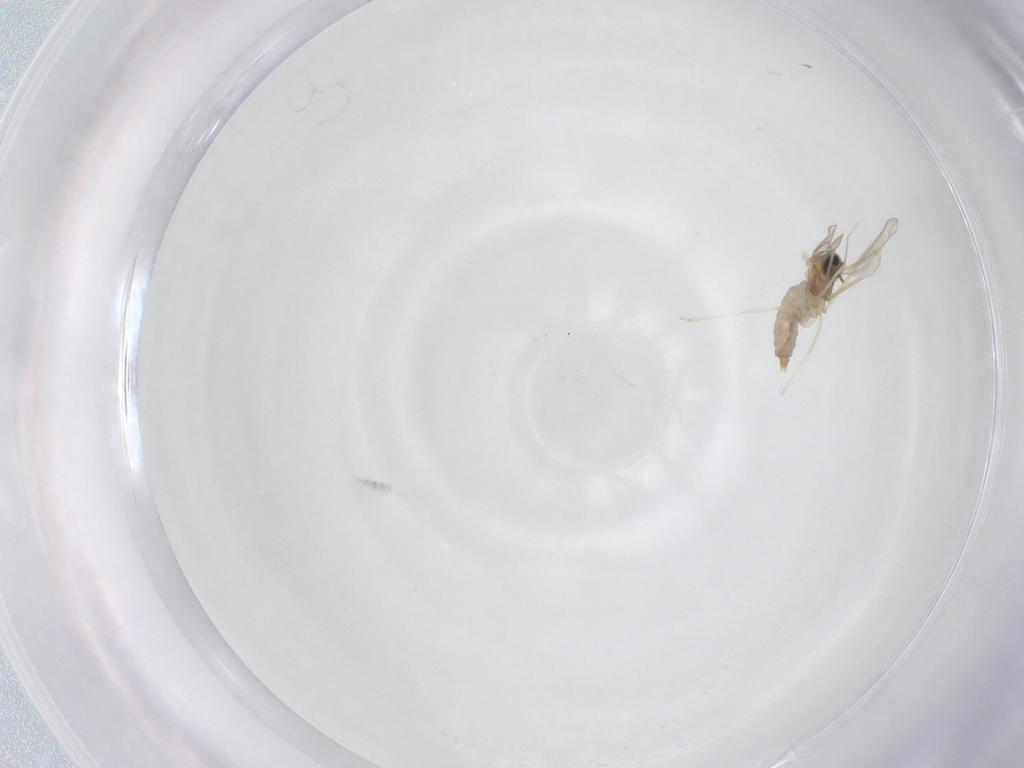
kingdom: Animalia
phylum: Arthropoda
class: Insecta
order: Diptera
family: Cecidomyiidae
